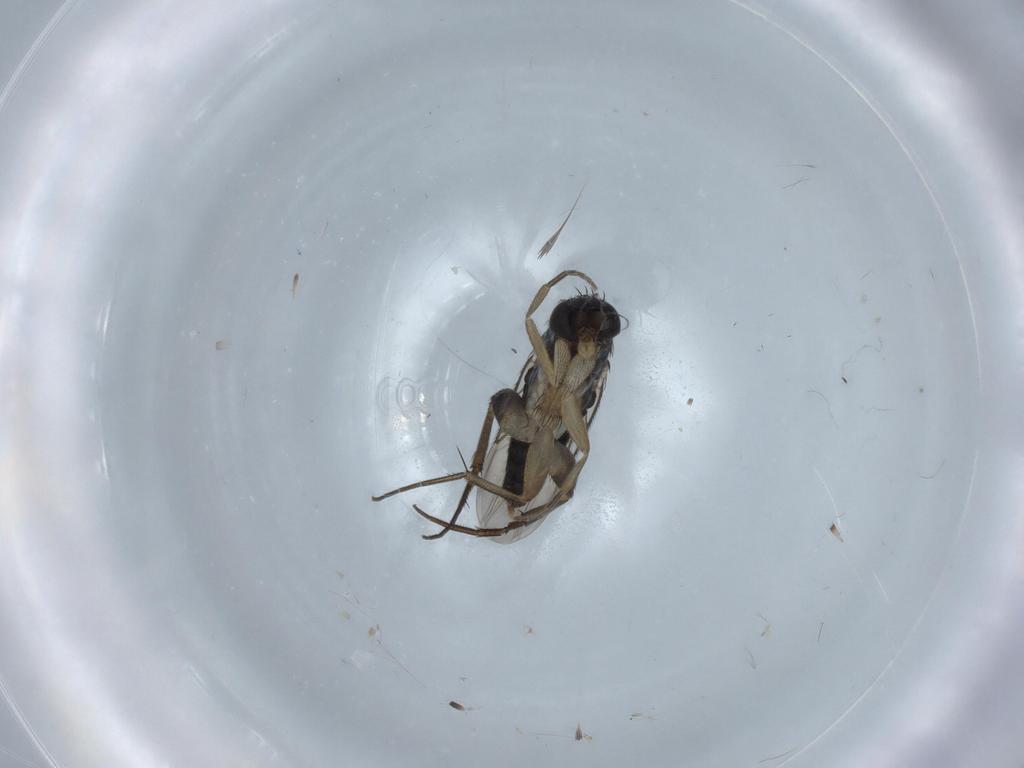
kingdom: Animalia
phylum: Arthropoda
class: Insecta
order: Diptera
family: Phoridae
